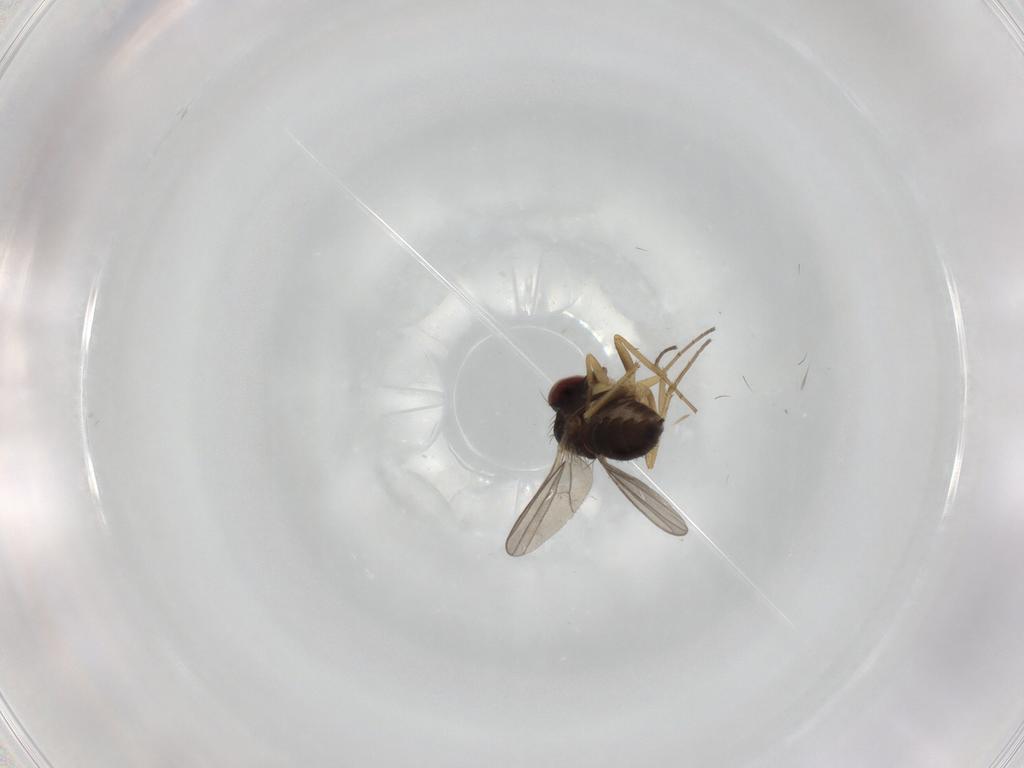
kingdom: Animalia
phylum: Arthropoda
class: Insecta
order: Diptera
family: Dolichopodidae
